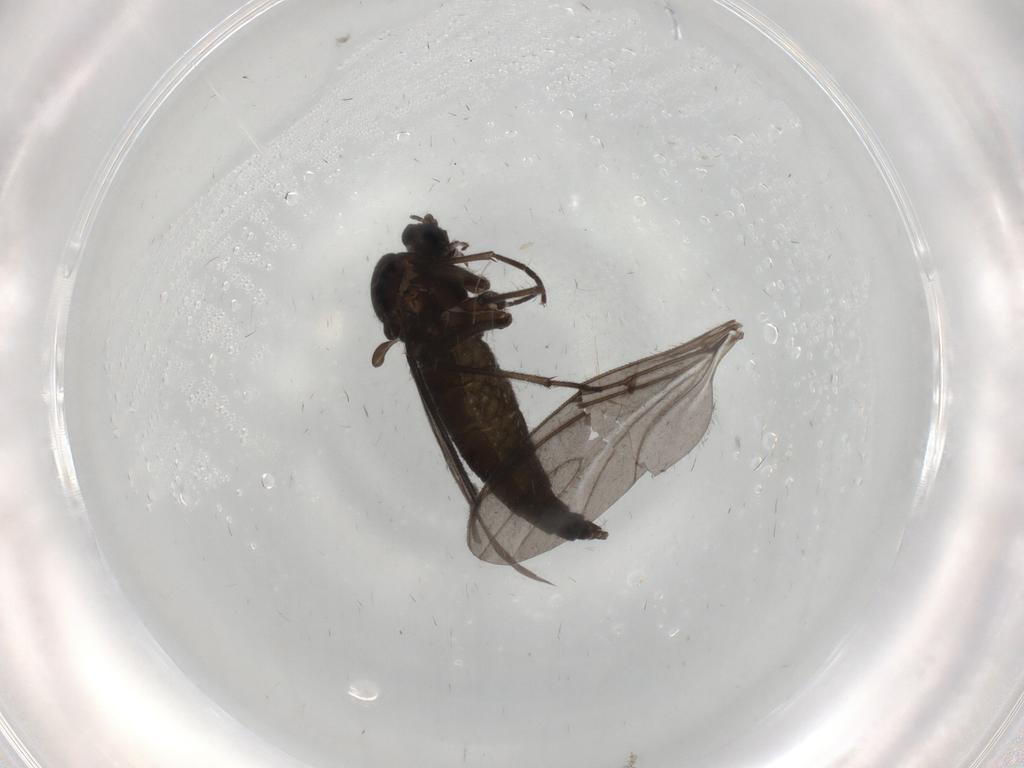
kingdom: Animalia
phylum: Arthropoda
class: Insecta
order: Diptera
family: Sciaridae
